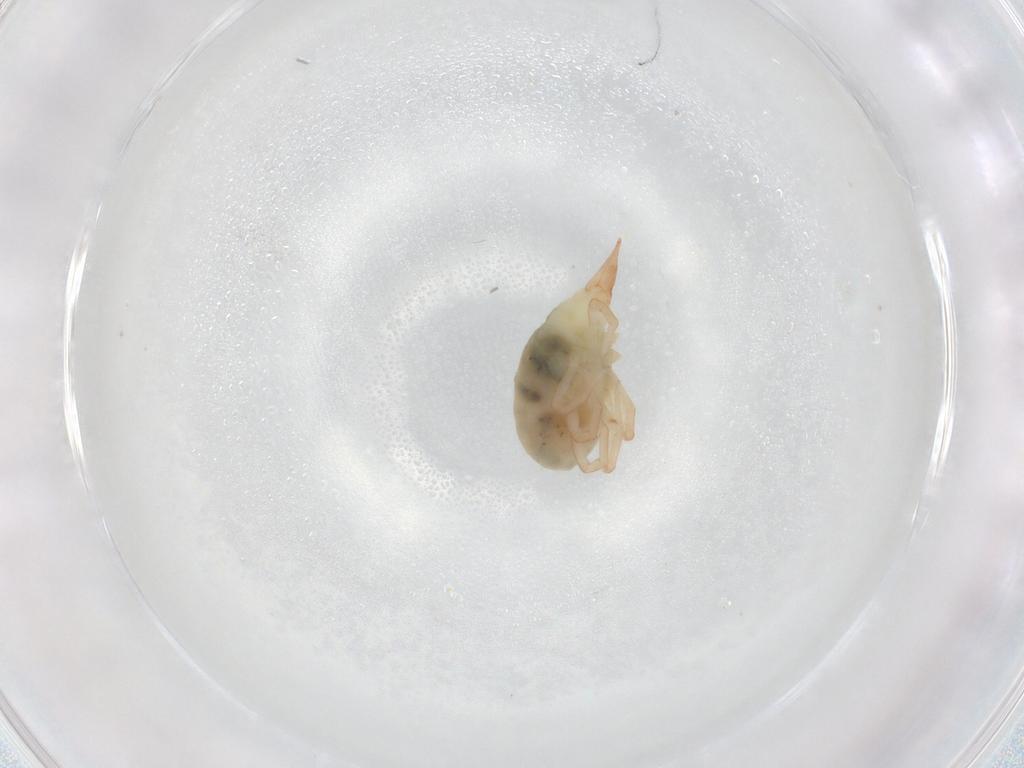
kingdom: Animalia
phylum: Arthropoda
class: Arachnida
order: Trombidiformes
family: Bdellidae
